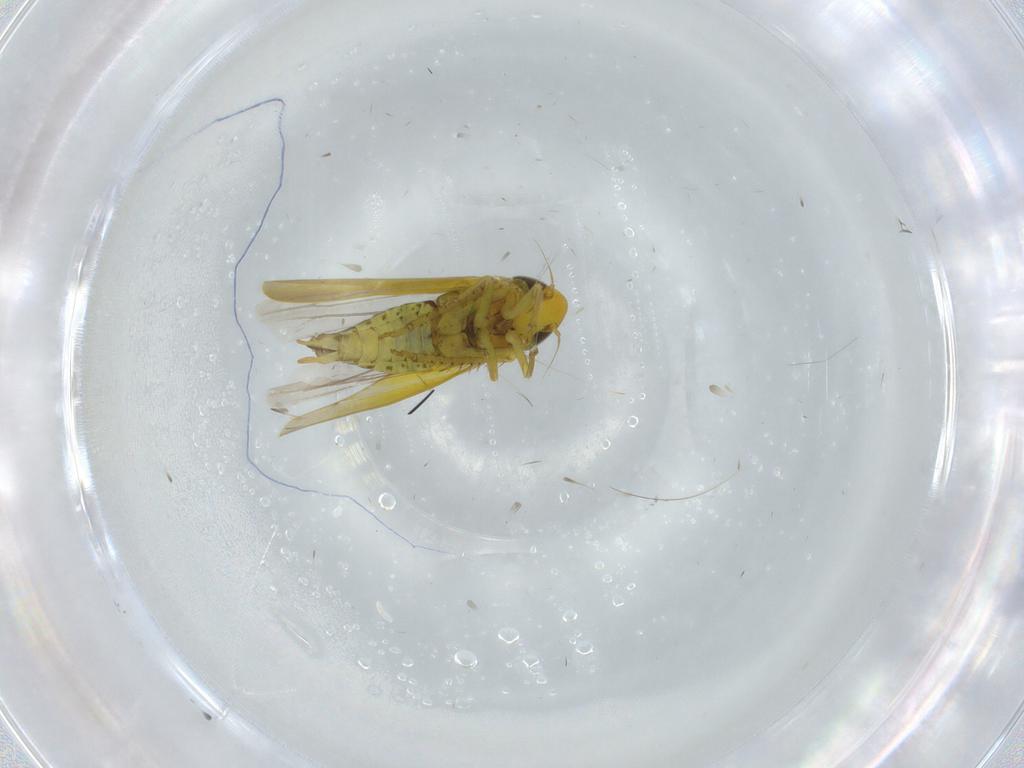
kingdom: Animalia
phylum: Arthropoda
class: Insecta
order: Hemiptera
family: Cicadellidae
